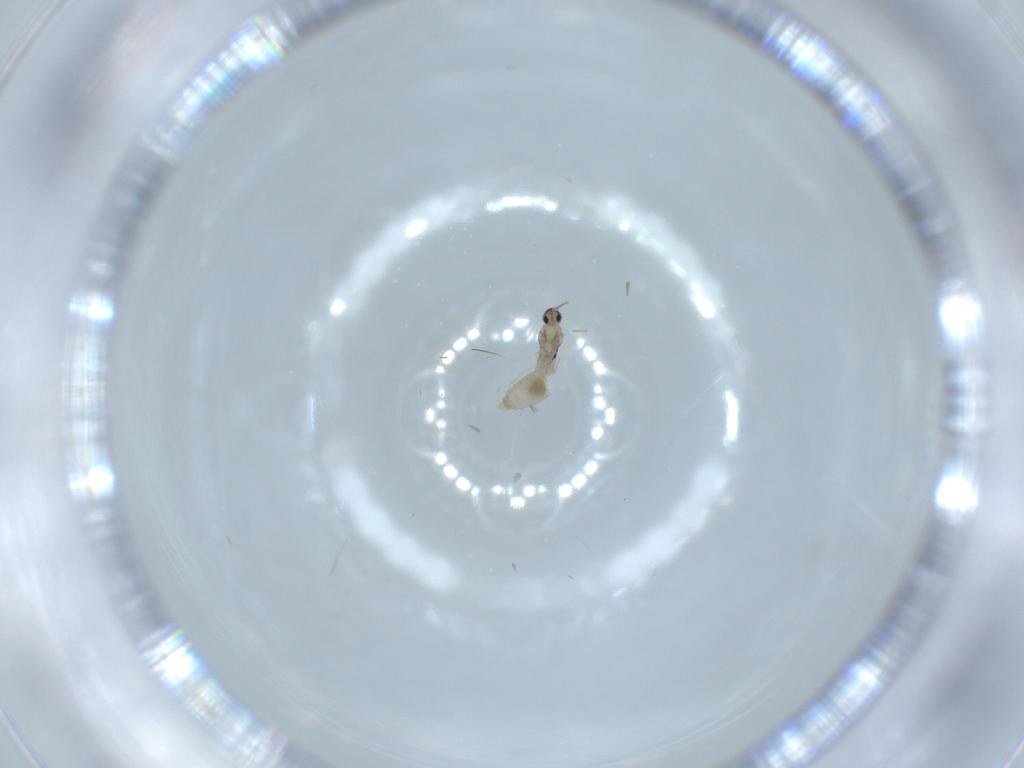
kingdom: Animalia
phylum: Arthropoda
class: Insecta
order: Diptera
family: Cecidomyiidae
